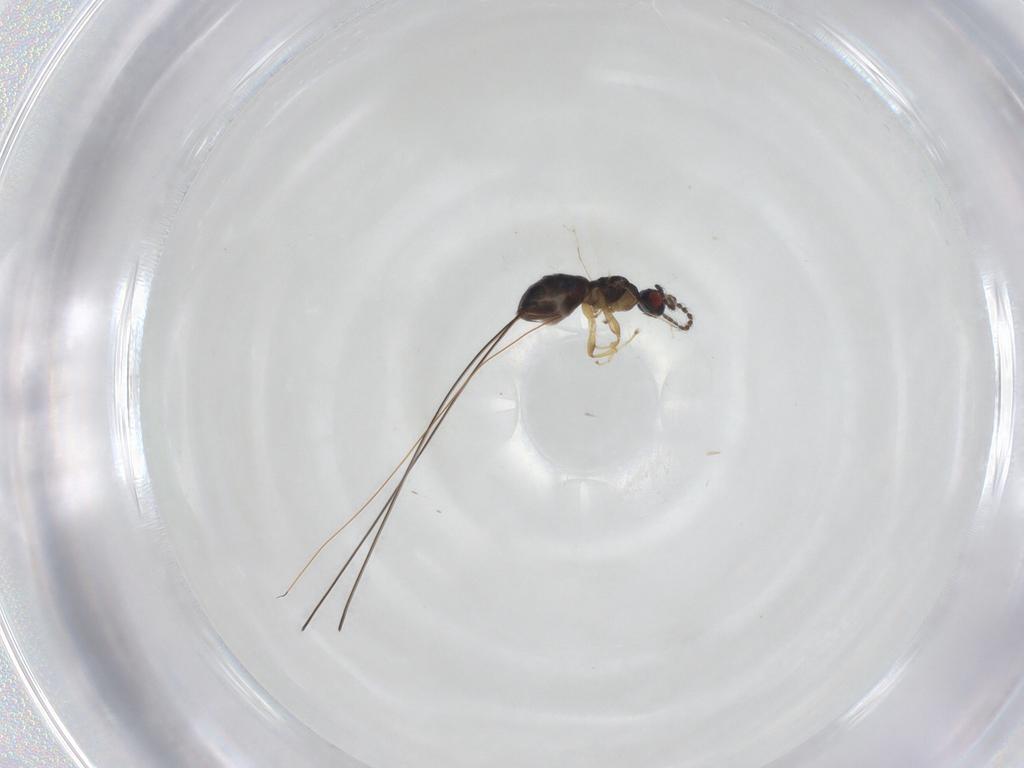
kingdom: Animalia
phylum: Arthropoda
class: Insecta
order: Hymenoptera
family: Pteromalidae
